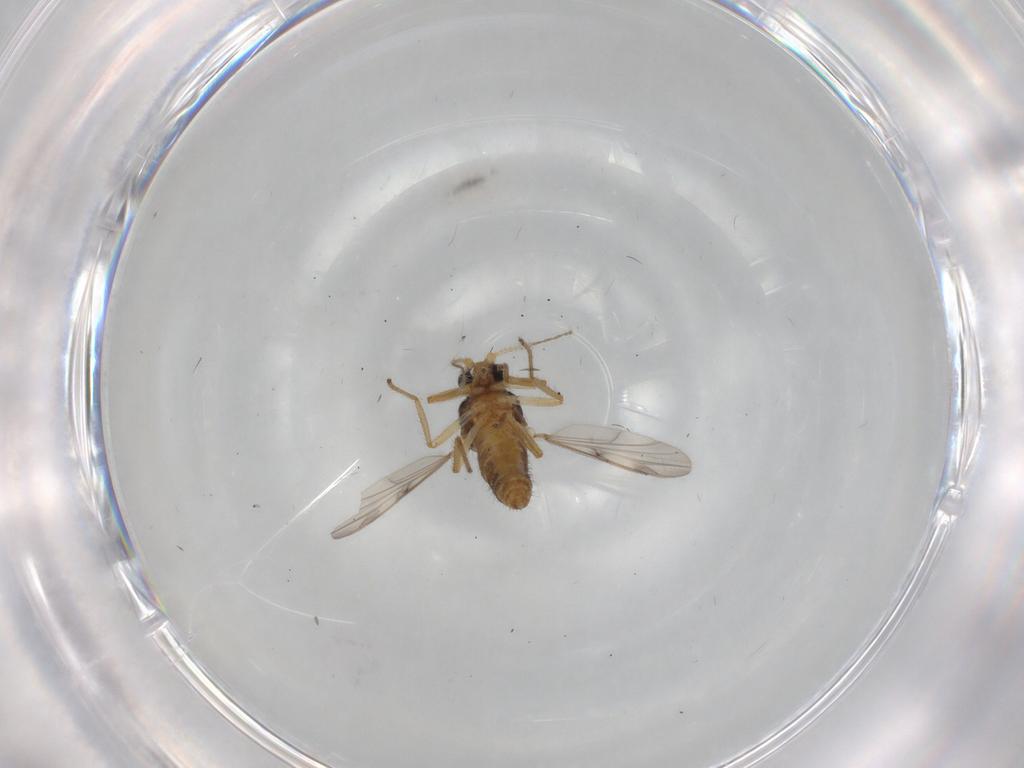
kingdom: Animalia
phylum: Arthropoda
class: Insecta
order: Diptera
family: Ceratopogonidae
